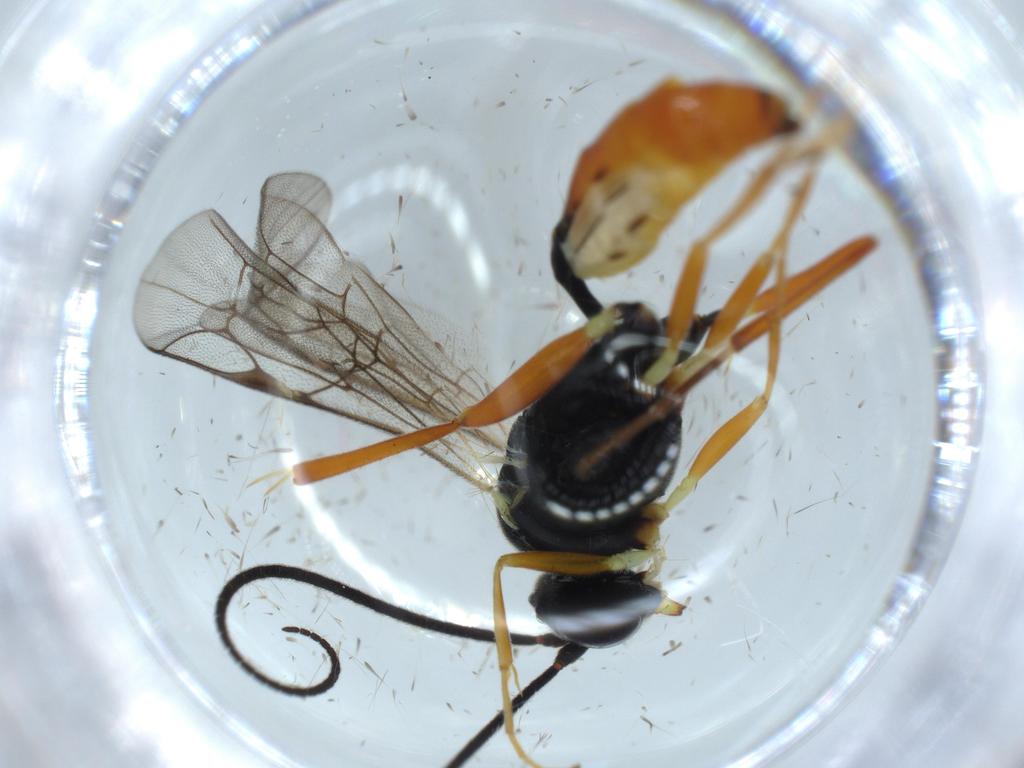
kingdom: Animalia
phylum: Arthropoda
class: Insecta
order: Hymenoptera
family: Ichneumonidae
